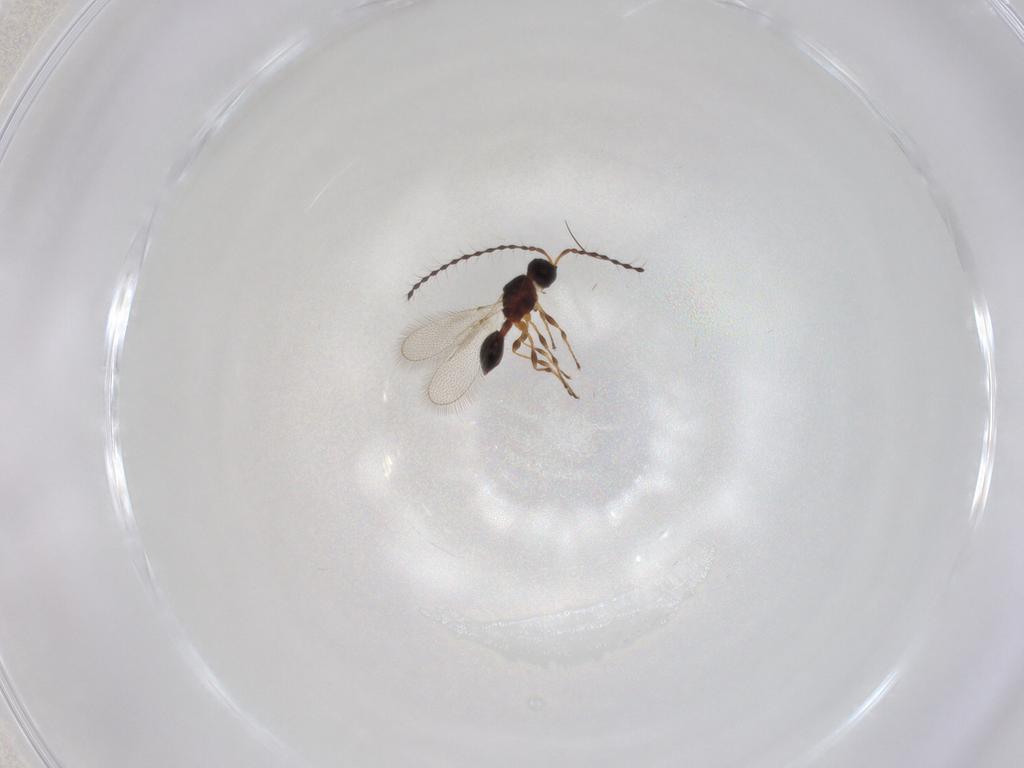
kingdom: Animalia
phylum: Arthropoda
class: Insecta
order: Hymenoptera
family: Diapriidae
